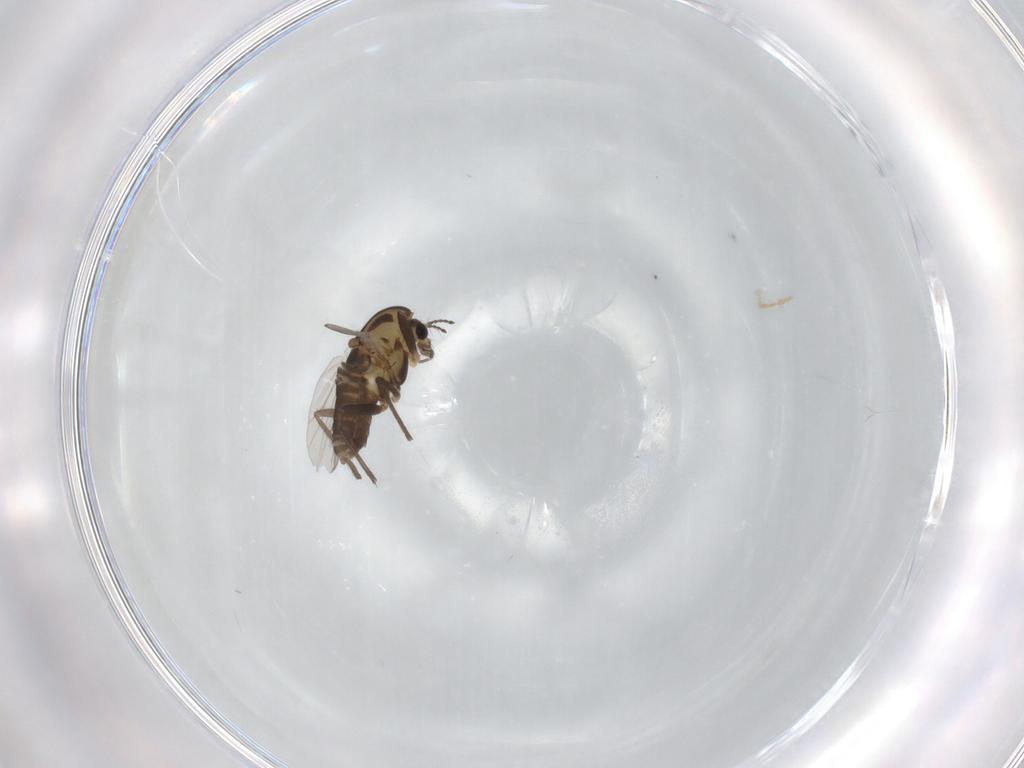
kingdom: Animalia
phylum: Arthropoda
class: Insecta
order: Diptera
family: Chironomidae
